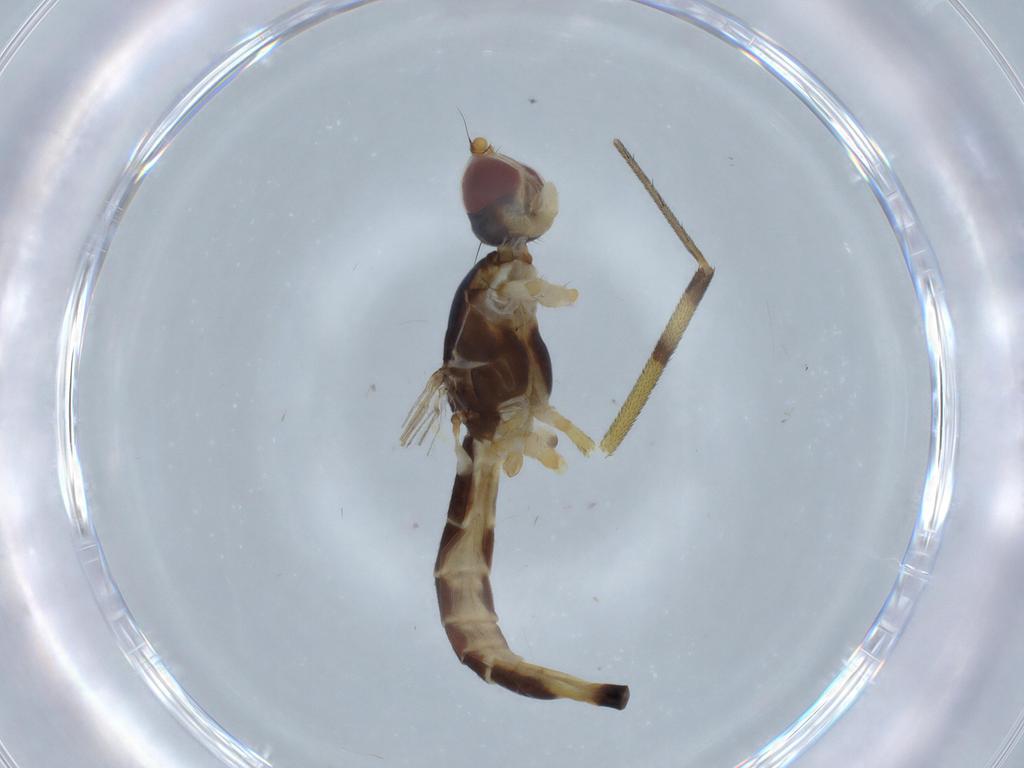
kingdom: Animalia
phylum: Arthropoda
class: Insecta
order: Diptera
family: Micropezidae
